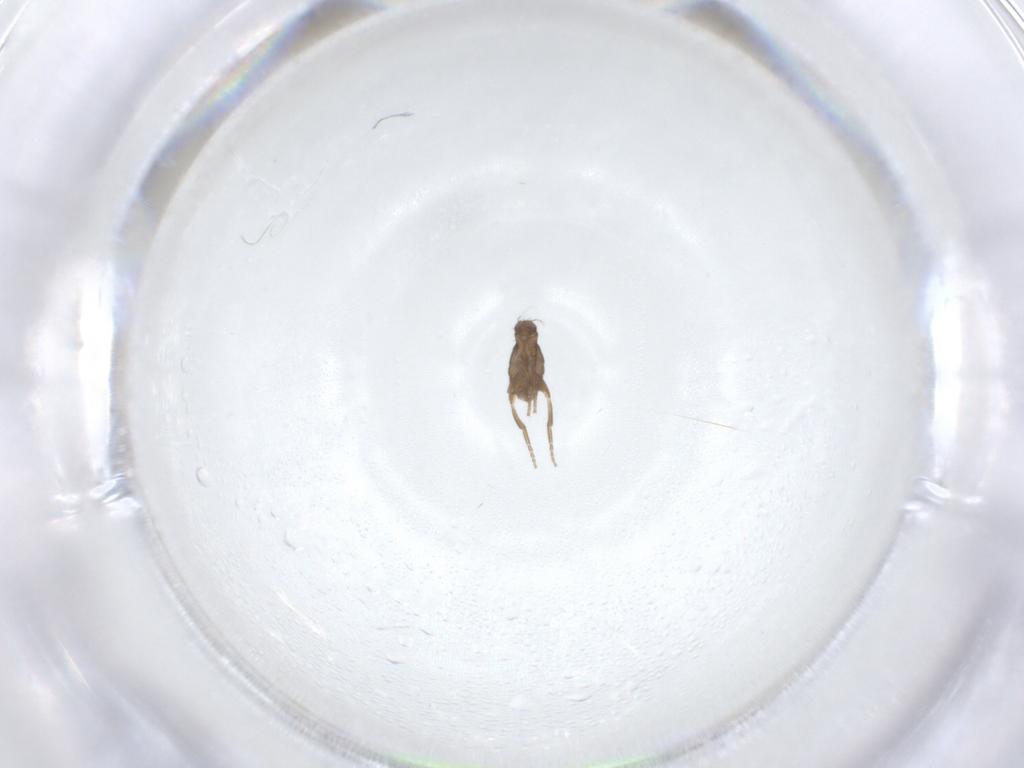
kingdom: Animalia
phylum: Arthropoda
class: Insecta
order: Diptera
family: Phoridae
